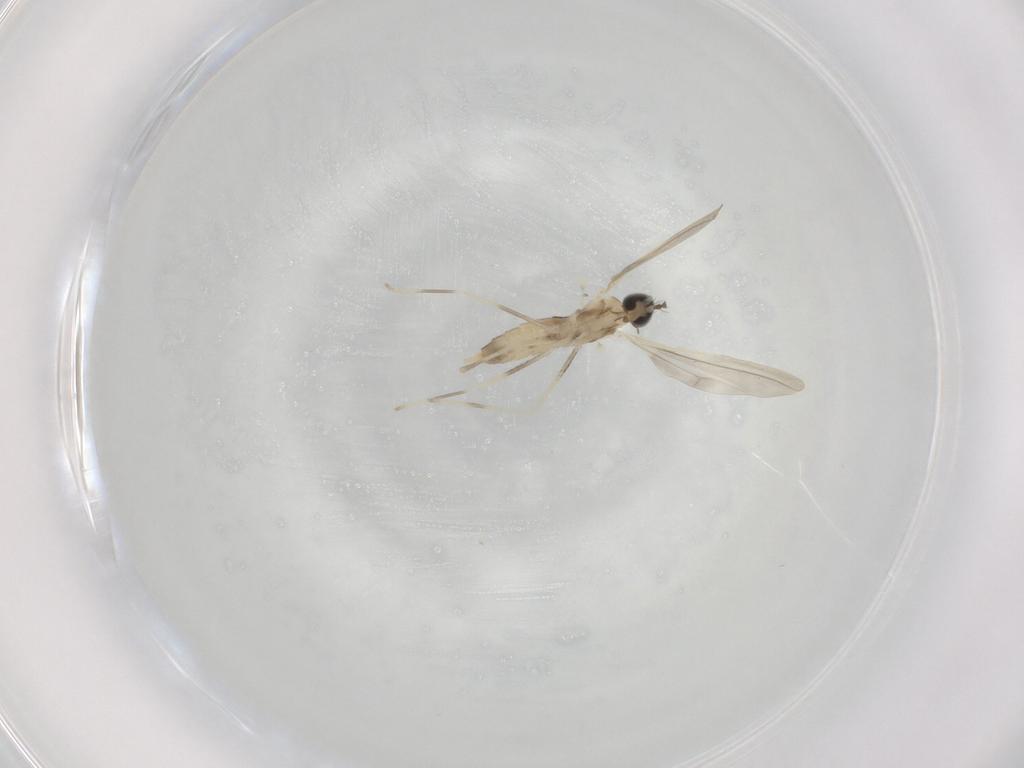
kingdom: Animalia
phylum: Arthropoda
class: Insecta
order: Diptera
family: Cecidomyiidae
